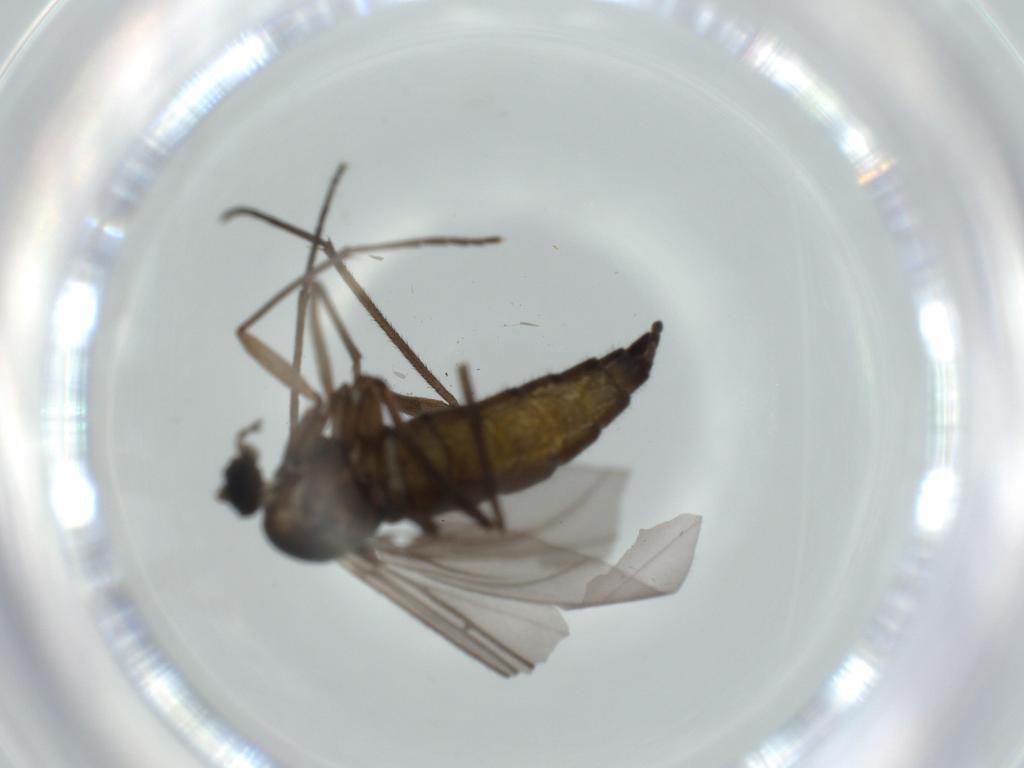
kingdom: Animalia
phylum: Arthropoda
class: Insecta
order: Diptera
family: Sciaridae
